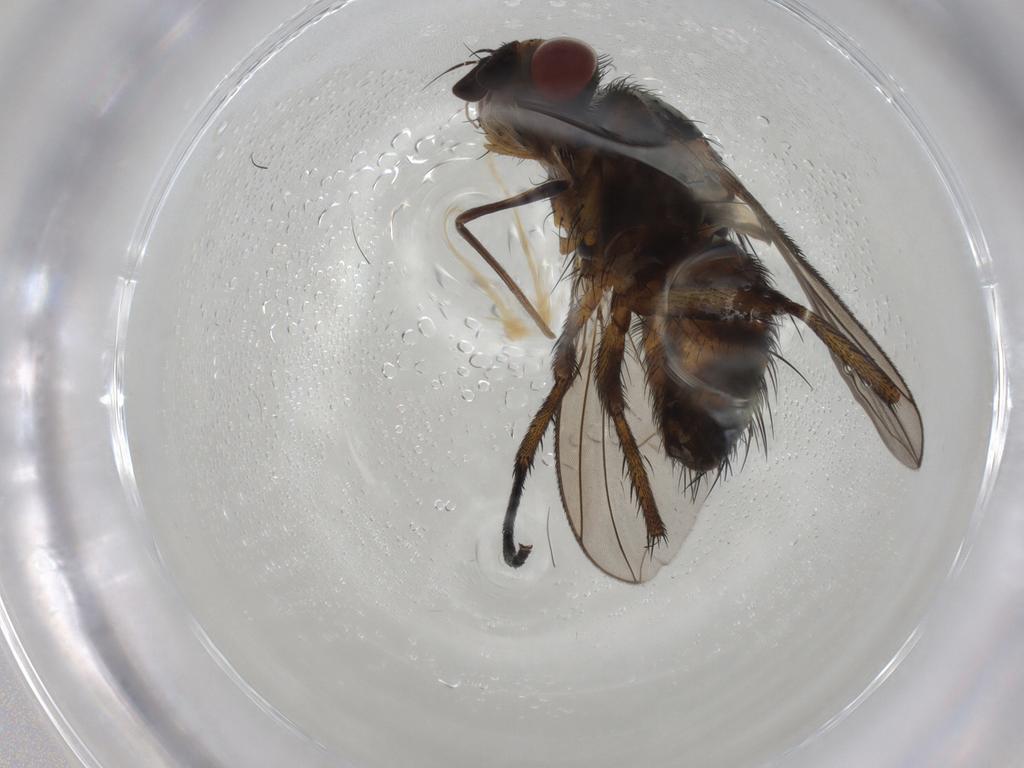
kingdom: Animalia
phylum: Arthropoda
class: Insecta
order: Diptera
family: Tachinidae
